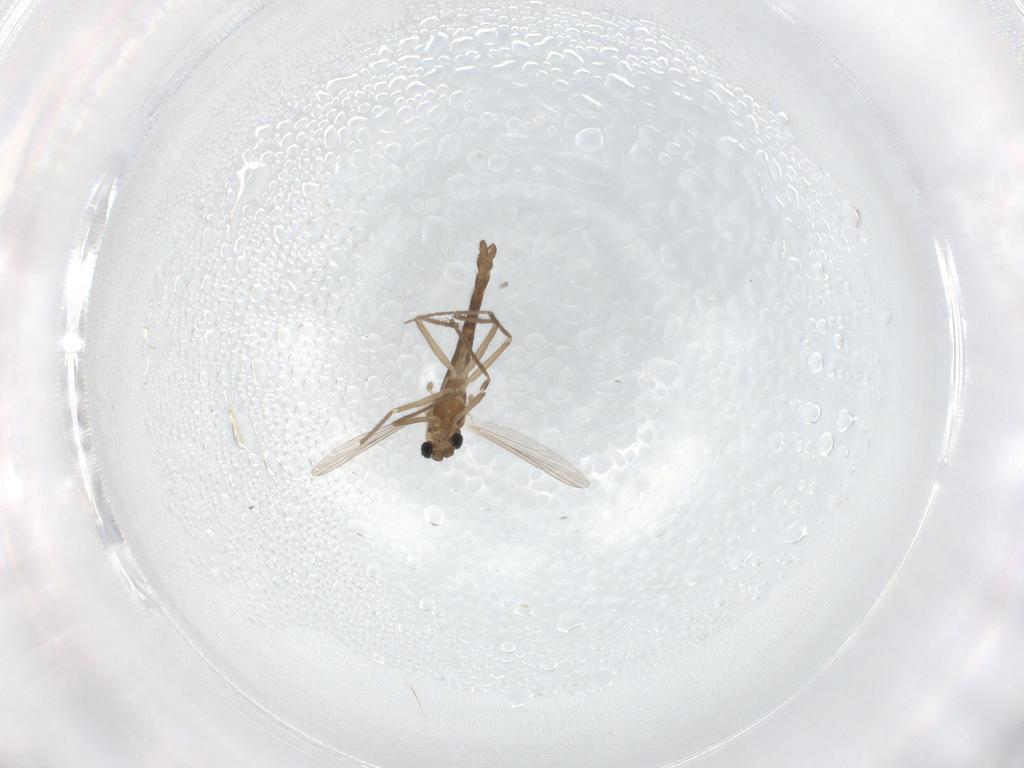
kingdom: Animalia
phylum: Arthropoda
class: Insecta
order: Diptera
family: Chironomidae
